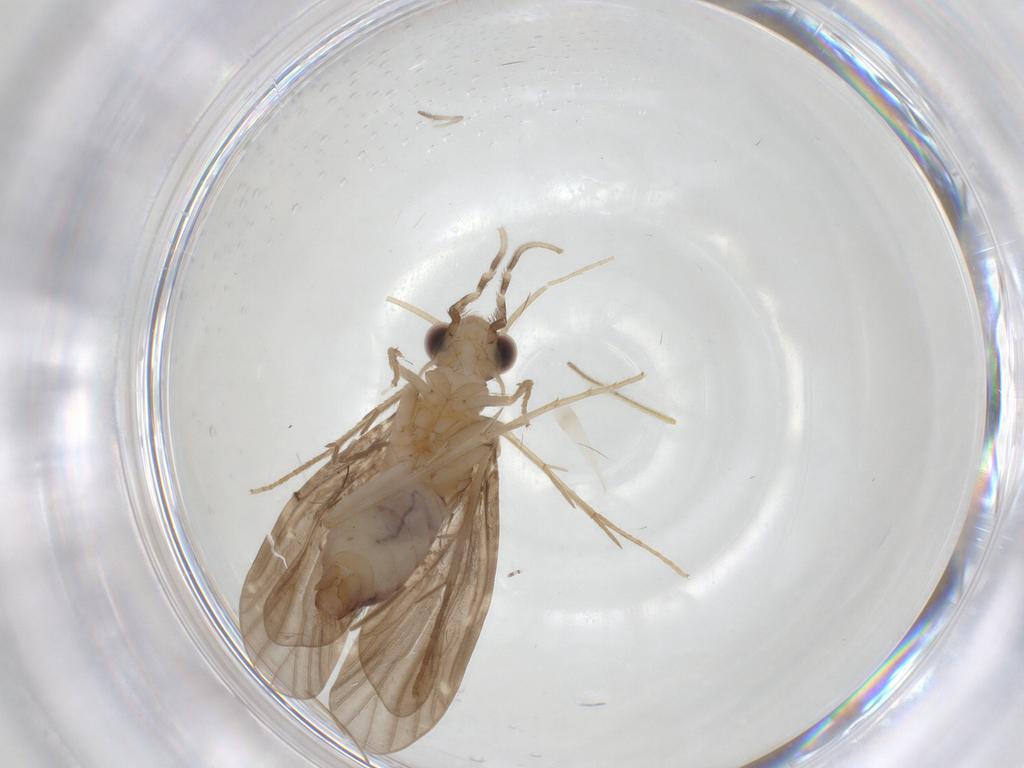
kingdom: Animalia
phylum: Arthropoda
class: Insecta
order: Trichoptera
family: Ecnomidae
